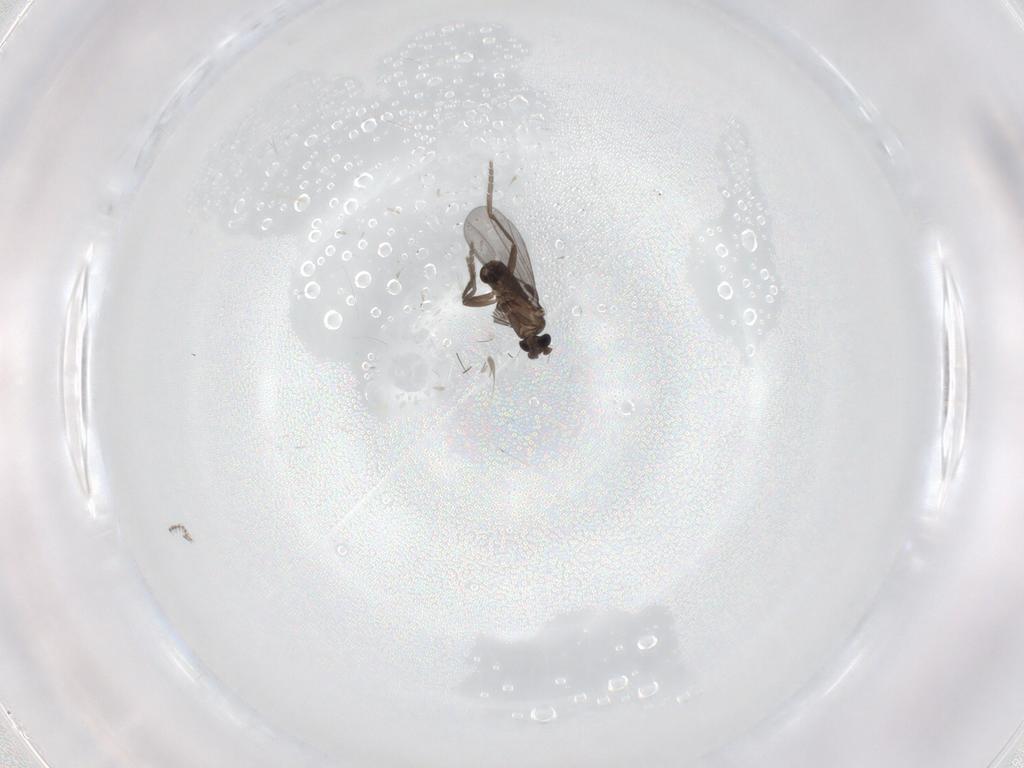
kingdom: Animalia
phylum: Arthropoda
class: Insecta
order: Diptera
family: Phoridae
